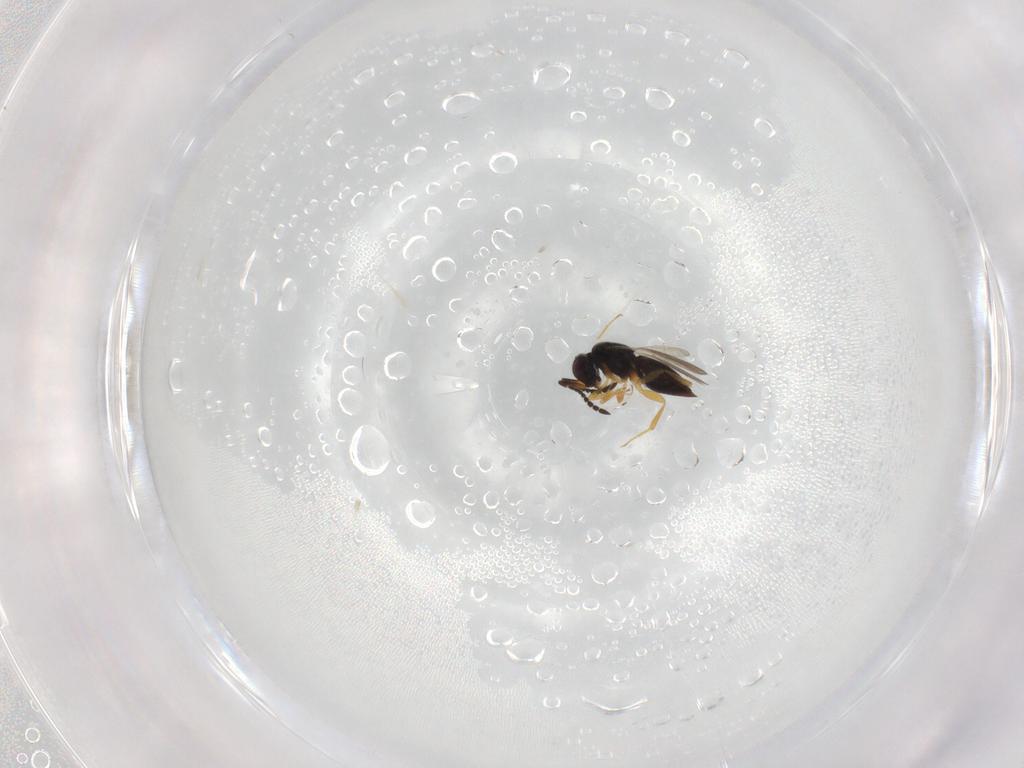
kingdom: Animalia
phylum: Arthropoda
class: Insecta
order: Hymenoptera
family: Ceraphronidae
